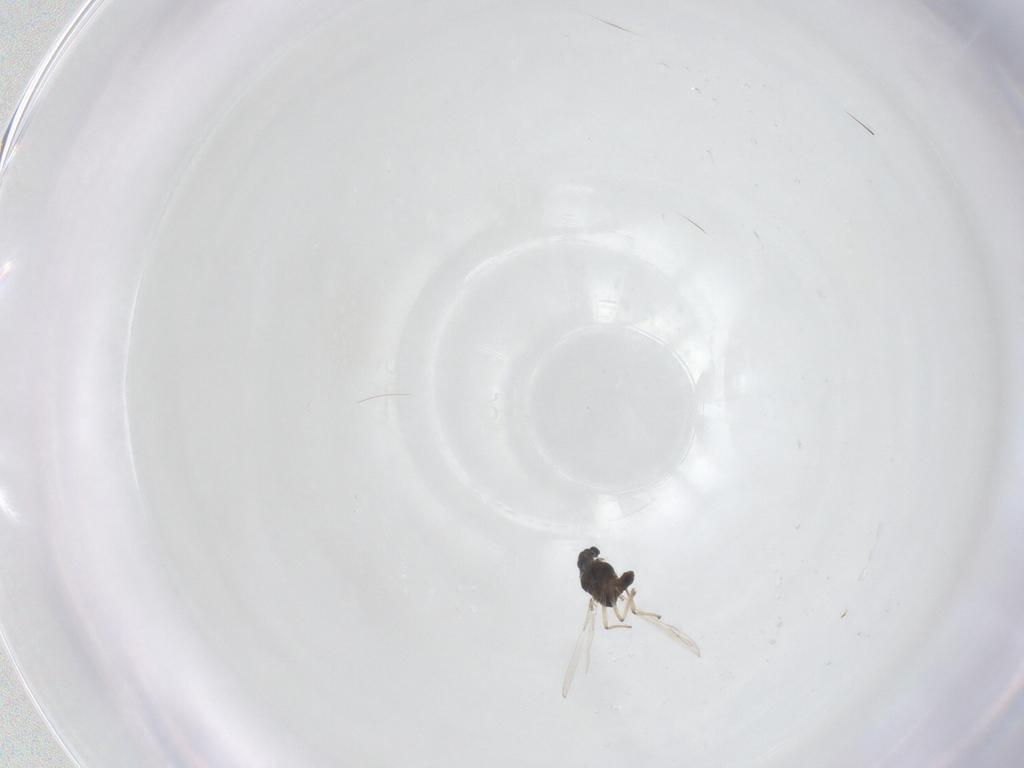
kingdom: Animalia
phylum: Arthropoda
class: Insecta
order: Diptera
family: Chironomidae
